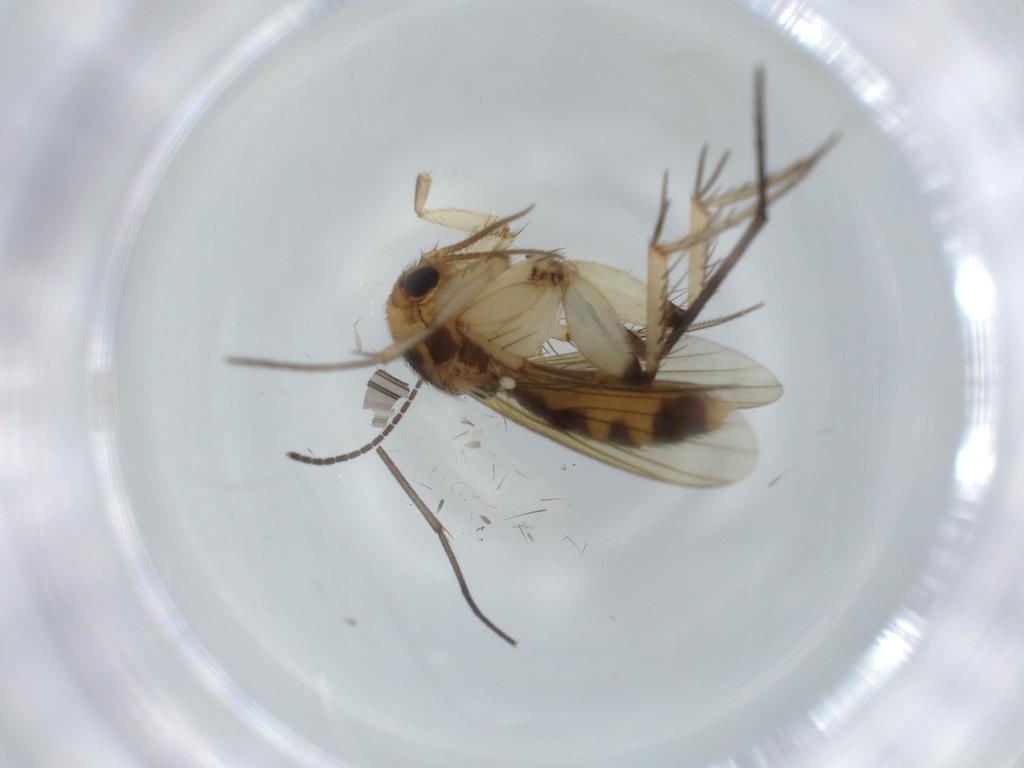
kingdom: Animalia
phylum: Arthropoda
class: Insecta
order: Diptera
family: Mycetophilidae
